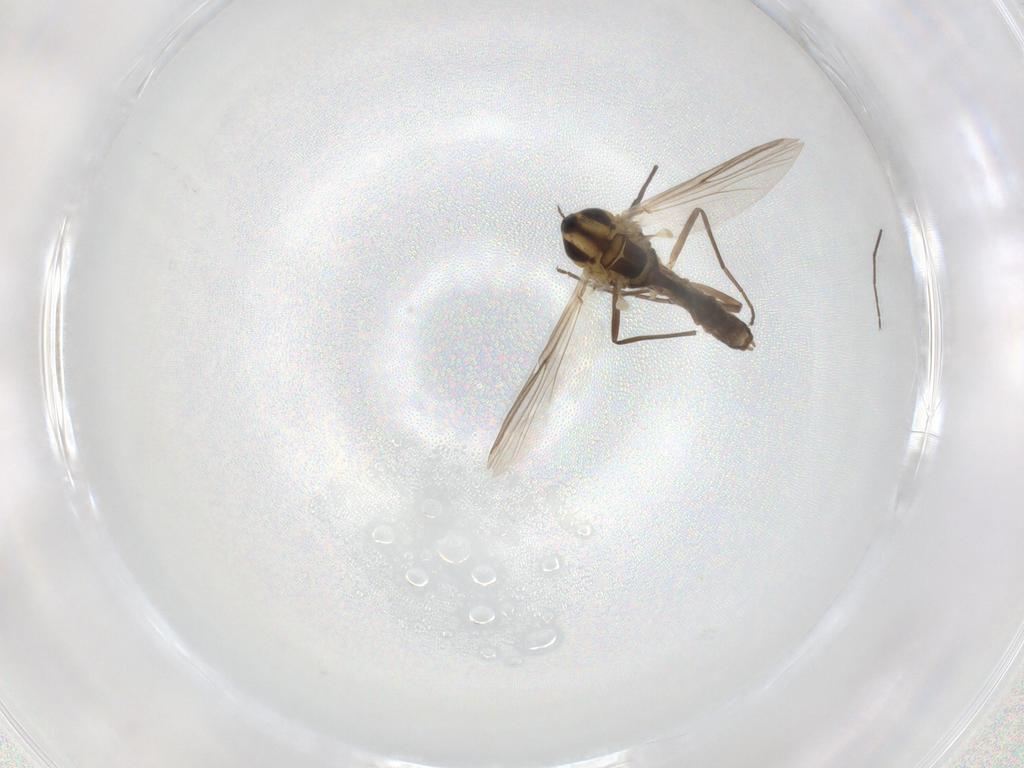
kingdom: Animalia
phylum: Arthropoda
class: Insecta
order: Diptera
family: Chironomidae
